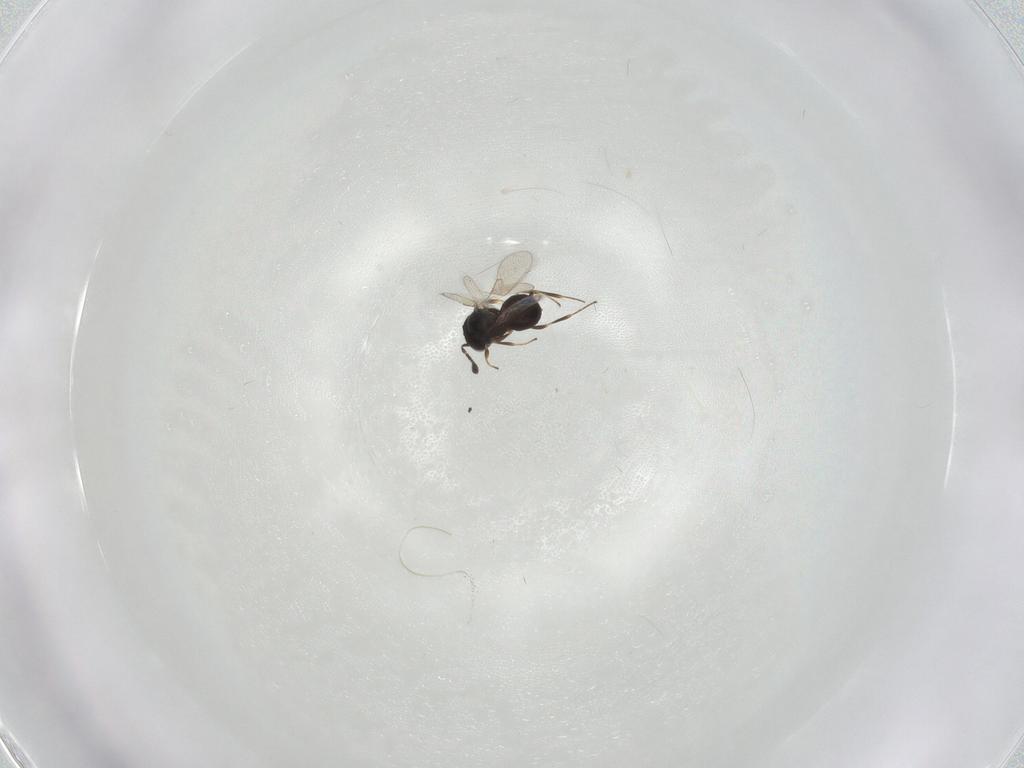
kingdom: Animalia
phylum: Arthropoda
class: Insecta
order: Hymenoptera
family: Scelionidae
